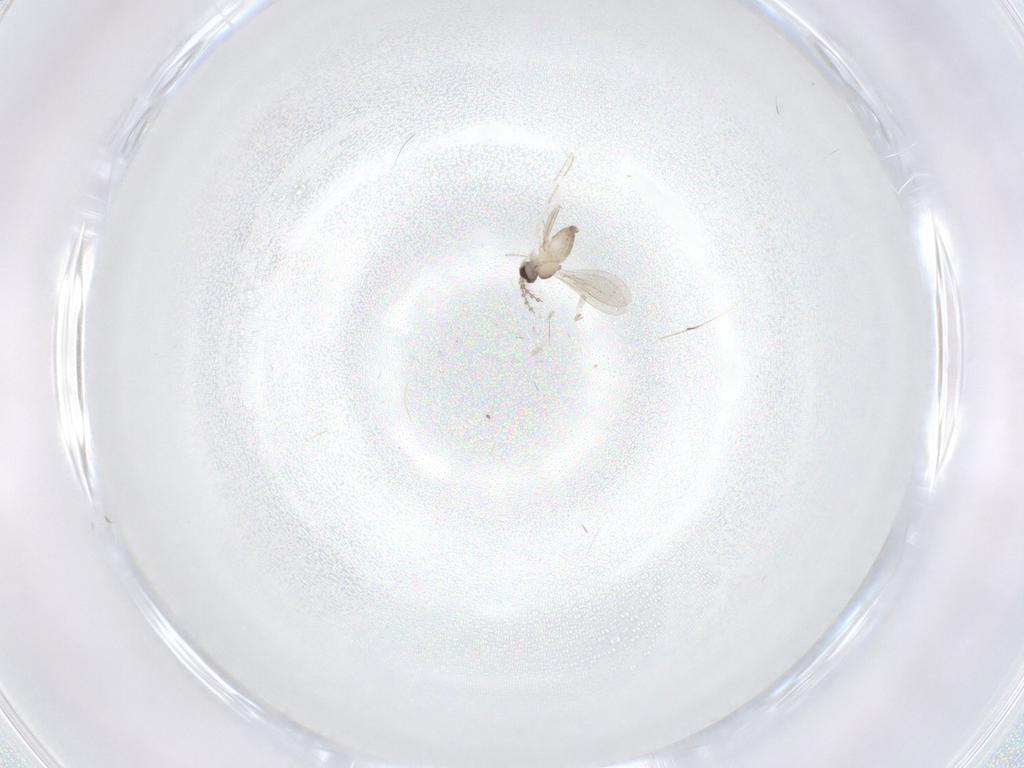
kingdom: Animalia
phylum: Arthropoda
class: Insecta
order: Diptera
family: Cecidomyiidae
